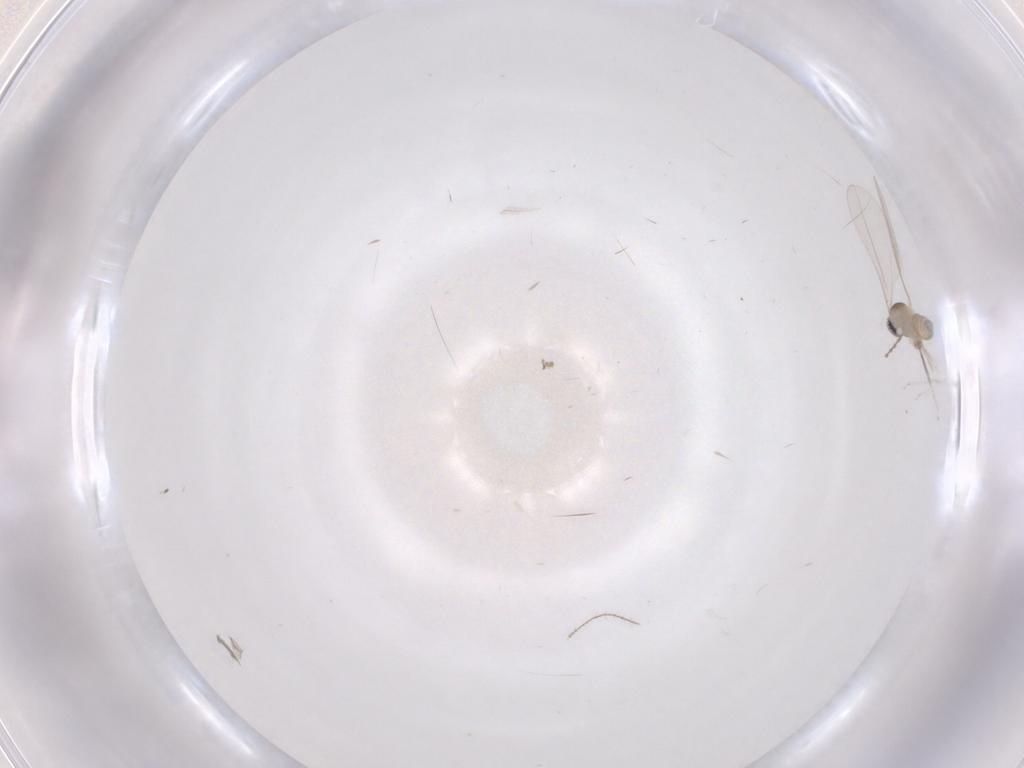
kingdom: Animalia
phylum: Arthropoda
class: Insecta
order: Diptera
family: Cecidomyiidae
